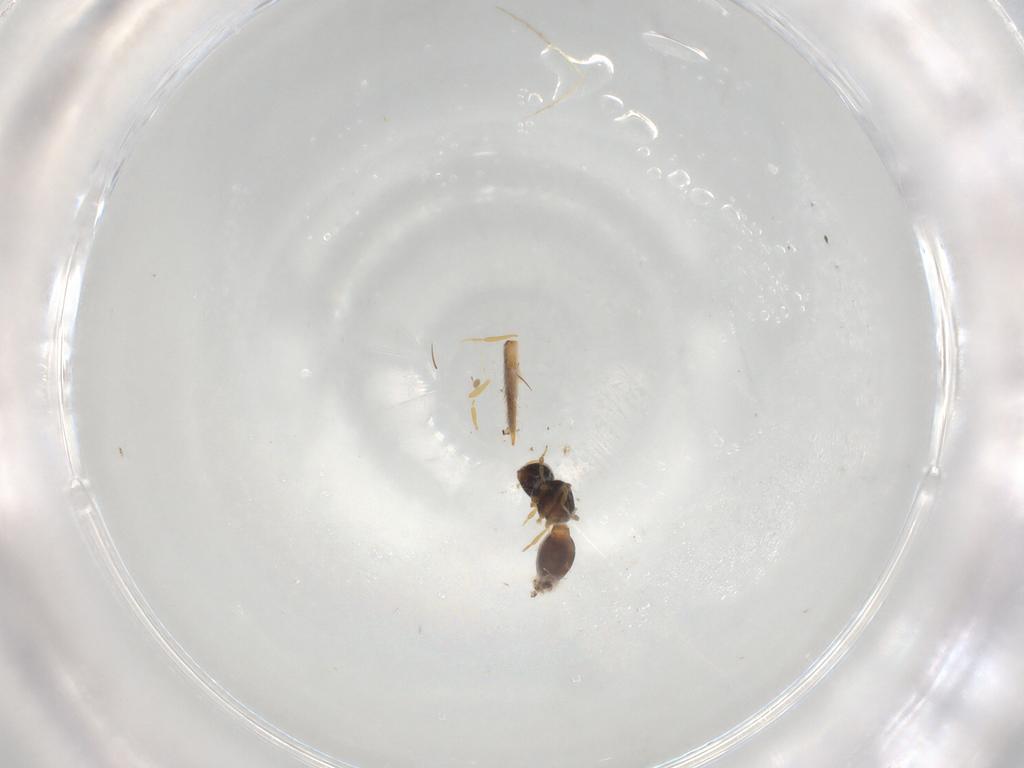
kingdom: Animalia
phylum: Arthropoda
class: Insecta
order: Hymenoptera
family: Scelionidae
